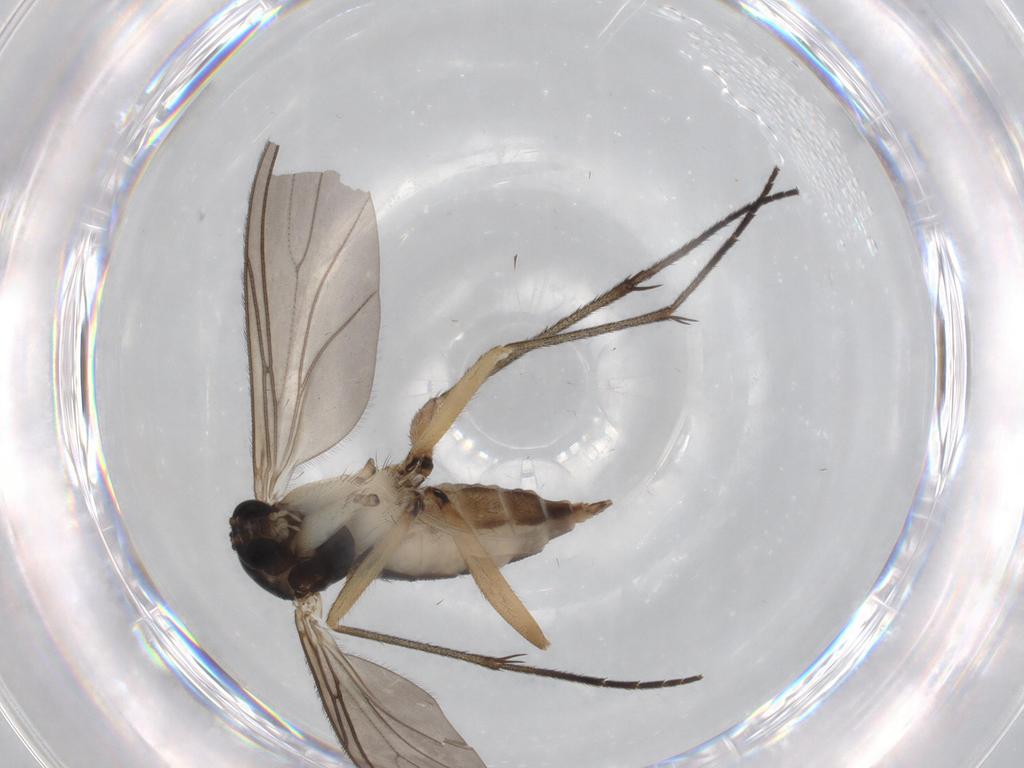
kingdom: Animalia
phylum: Arthropoda
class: Insecta
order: Diptera
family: Sciaridae
